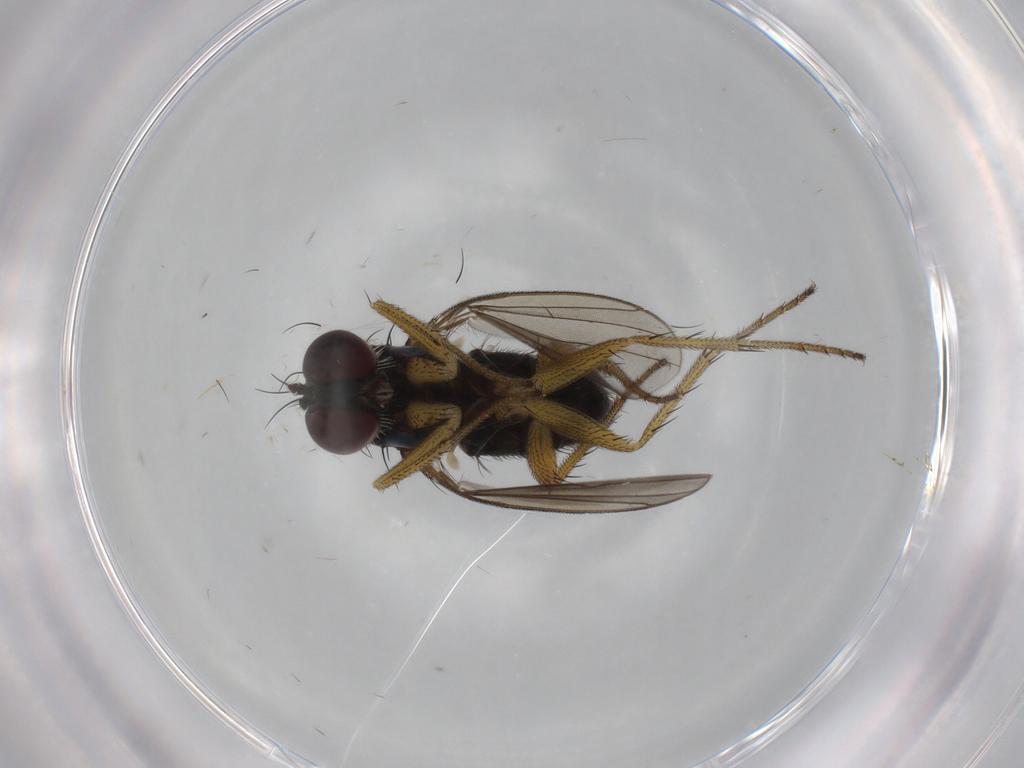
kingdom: Animalia
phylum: Arthropoda
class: Insecta
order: Diptera
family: Dolichopodidae
